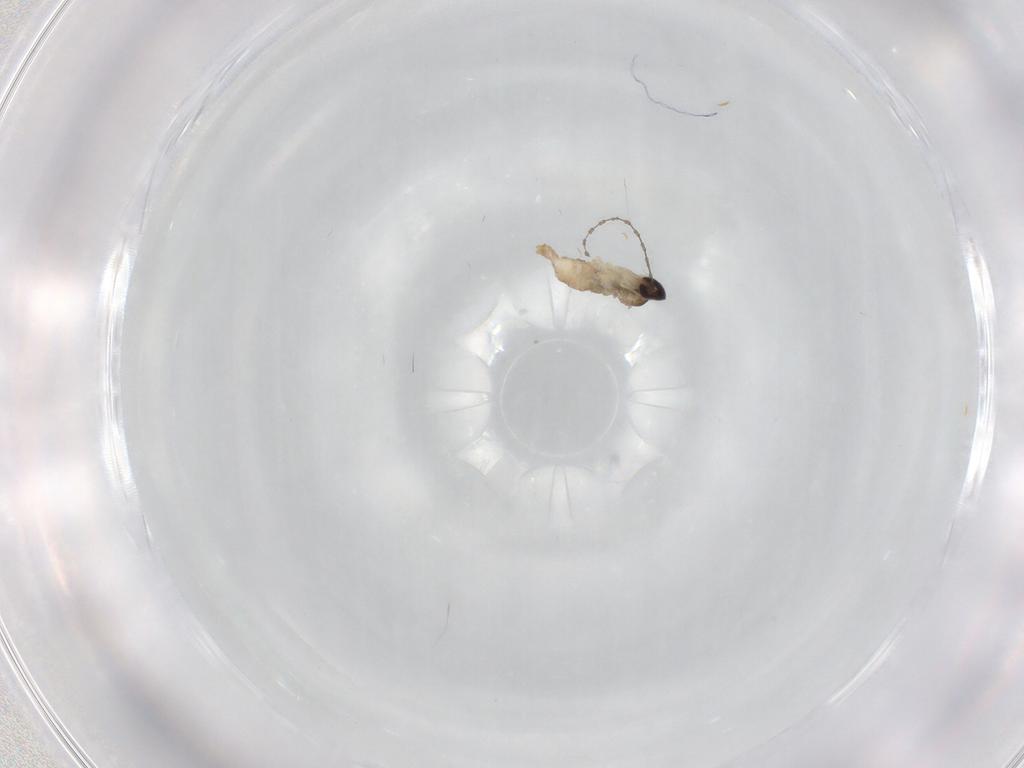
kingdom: Animalia
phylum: Arthropoda
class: Insecta
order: Diptera
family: Cecidomyiidae
